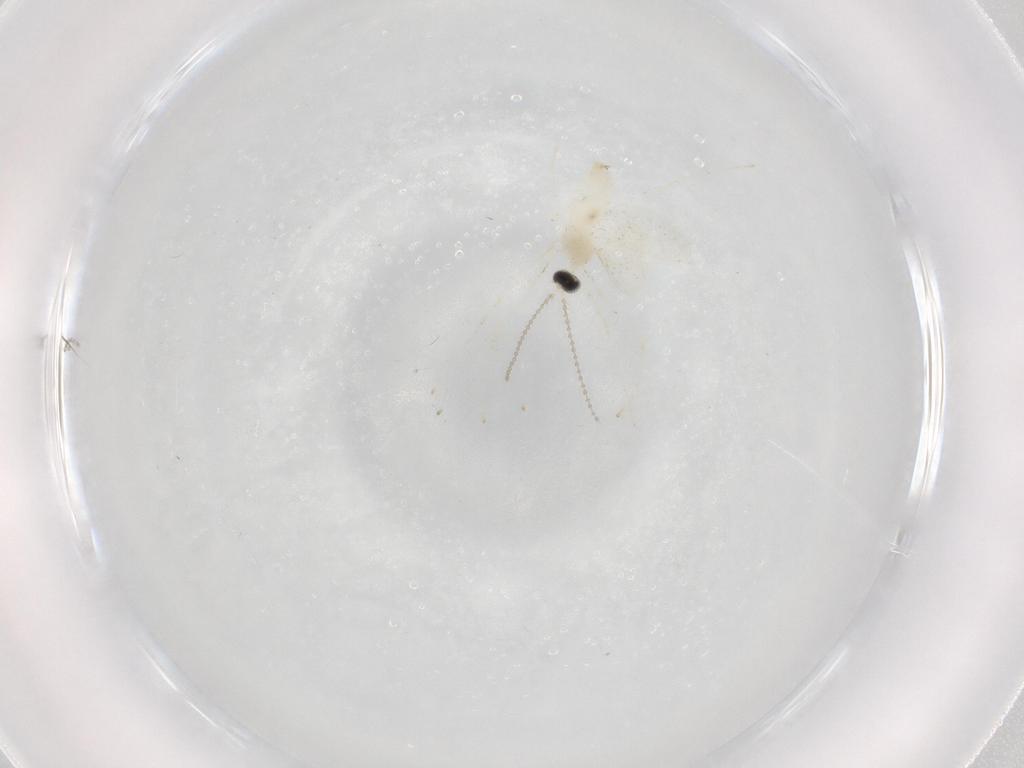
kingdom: Animalia
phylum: Arthropoda
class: Insecta
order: Diptera
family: Cecidomyiidae
